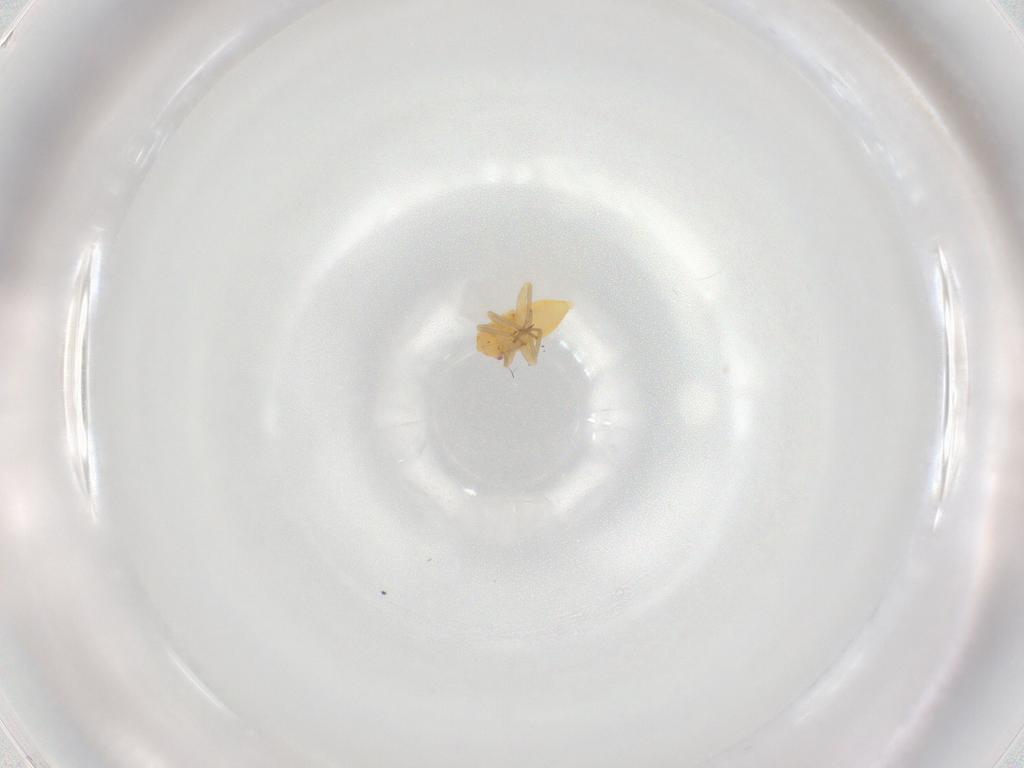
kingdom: Animalia
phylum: Arthropoda
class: Insecta
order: Hemiptera
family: Miridae
